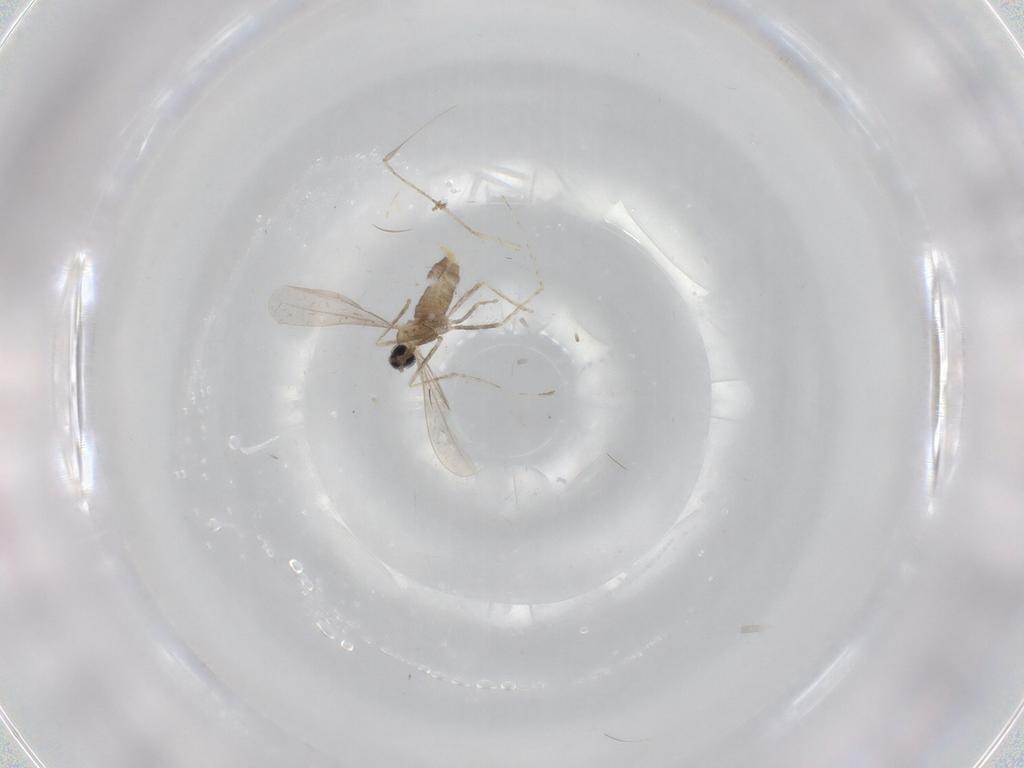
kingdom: Animalia
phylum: Arthropoda
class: Insecta
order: Diptera
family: Cecidomyiidae
